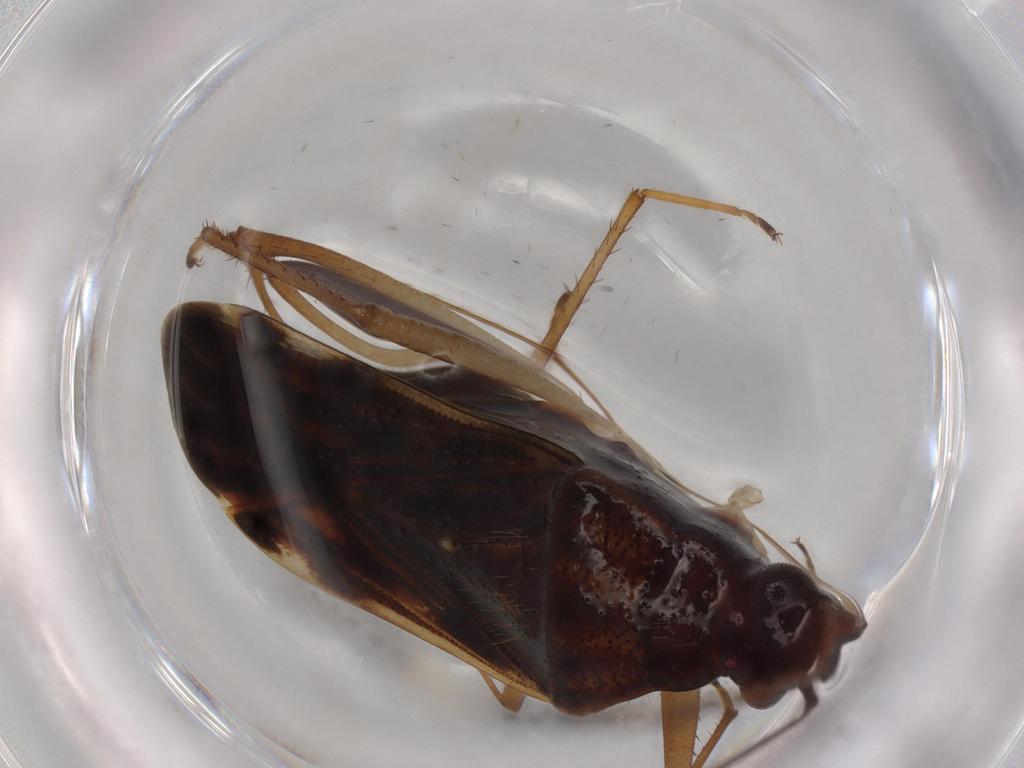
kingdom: Animalia
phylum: Arthropoda
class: Insecta
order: Hemiptera
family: Rhyparochromidae
